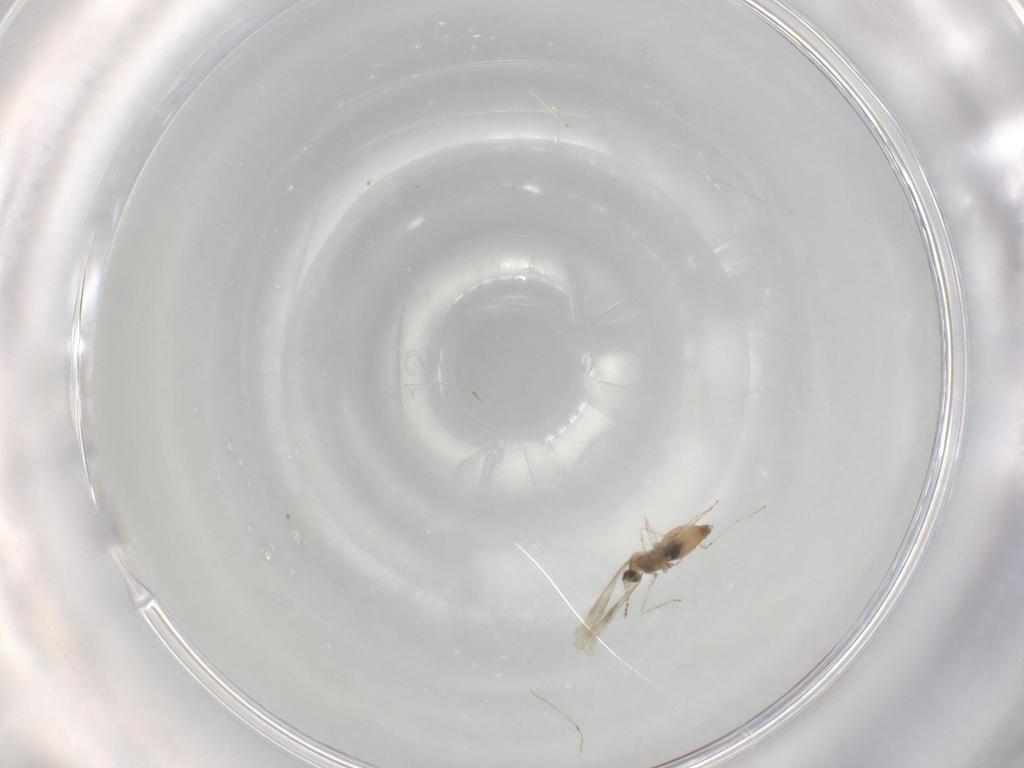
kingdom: Animalia
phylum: Arthropoda
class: Insecta
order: Diptera
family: Cecidomyiidae
